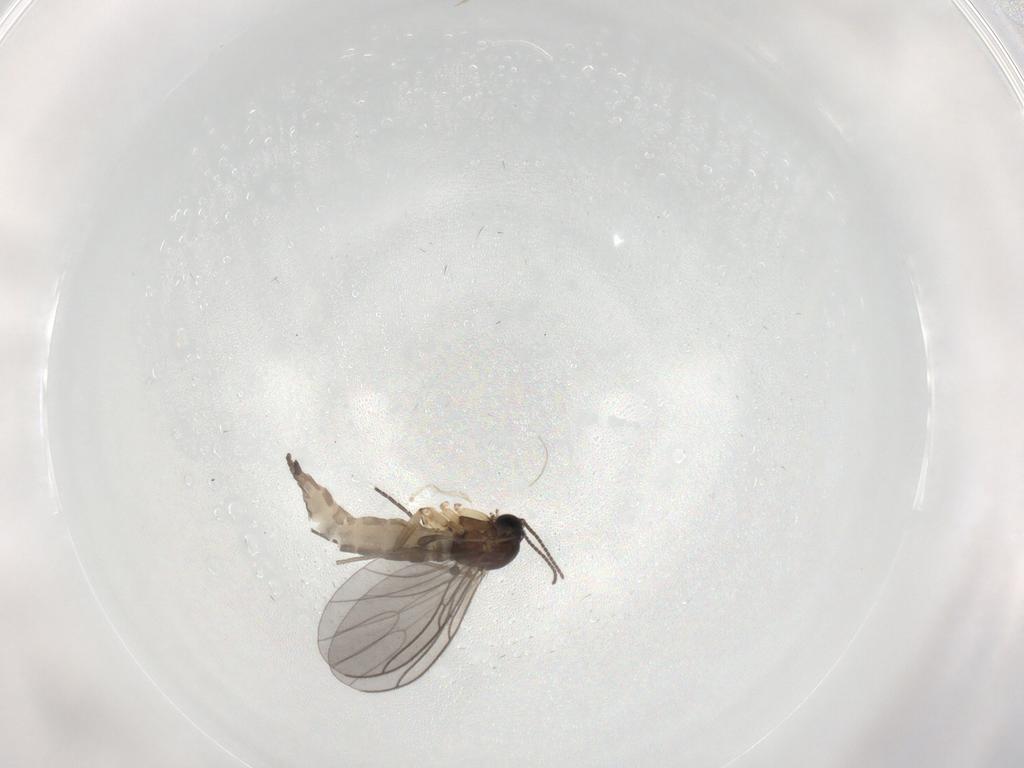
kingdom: Animalia
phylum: Arthropoda
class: Insecta
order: Diptera
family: Sciaridae
